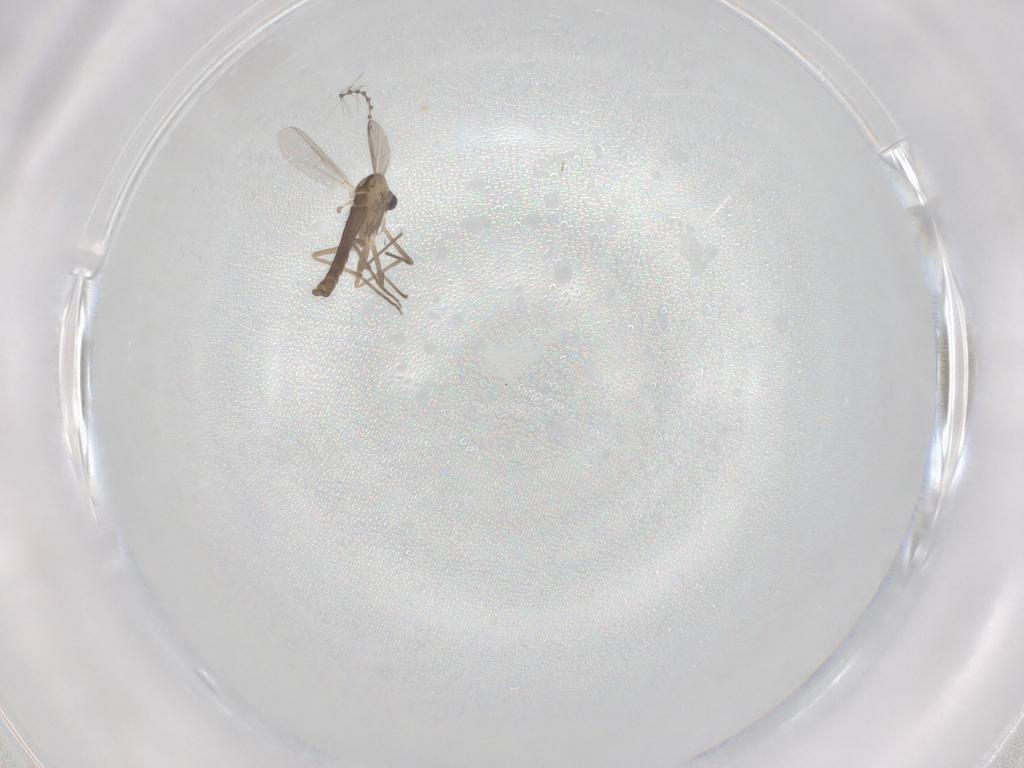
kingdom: Animalia
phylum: Arthropoda
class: Insecta
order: Diptera
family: Chironomidae
